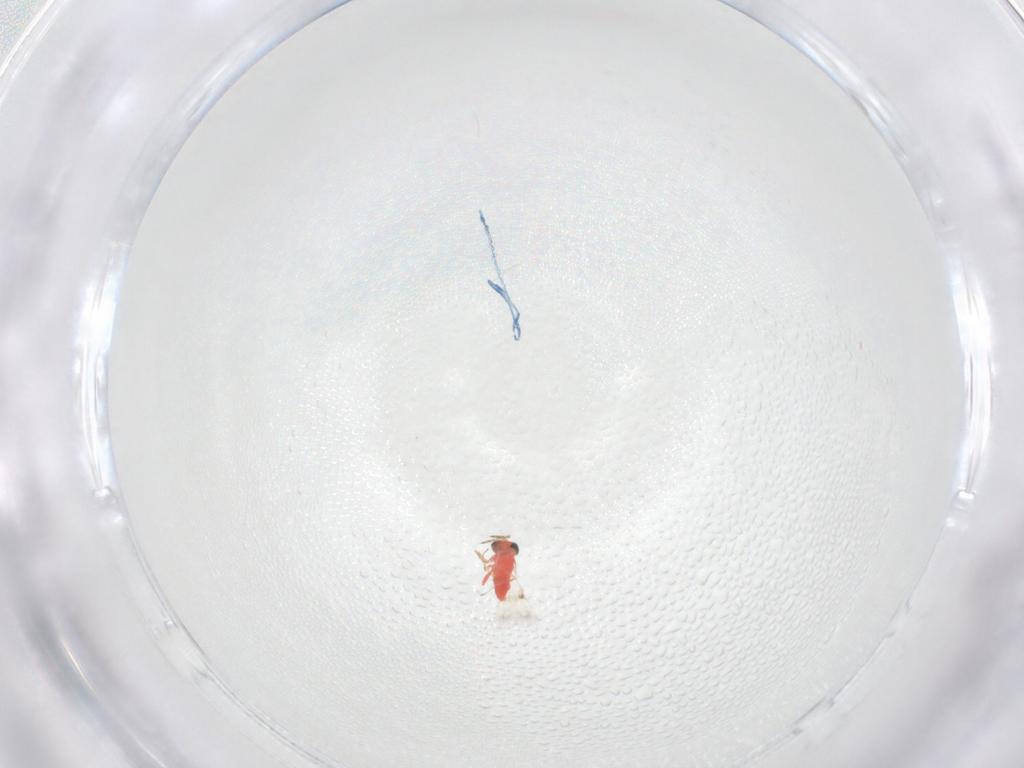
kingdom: Animalia
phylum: Arthropoda
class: Insecta
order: Hymenoptera
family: Trichogrammatidae
